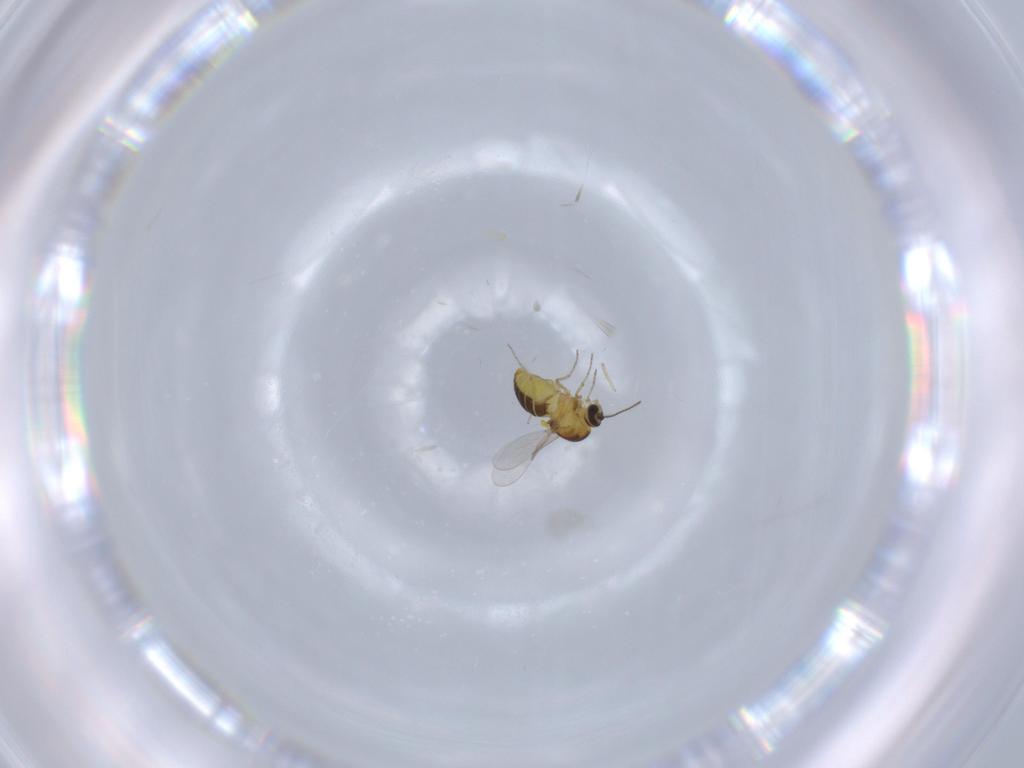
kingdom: Animalia
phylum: Arthropoda
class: Insecta
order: Diptera
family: Ceratopogonidae
